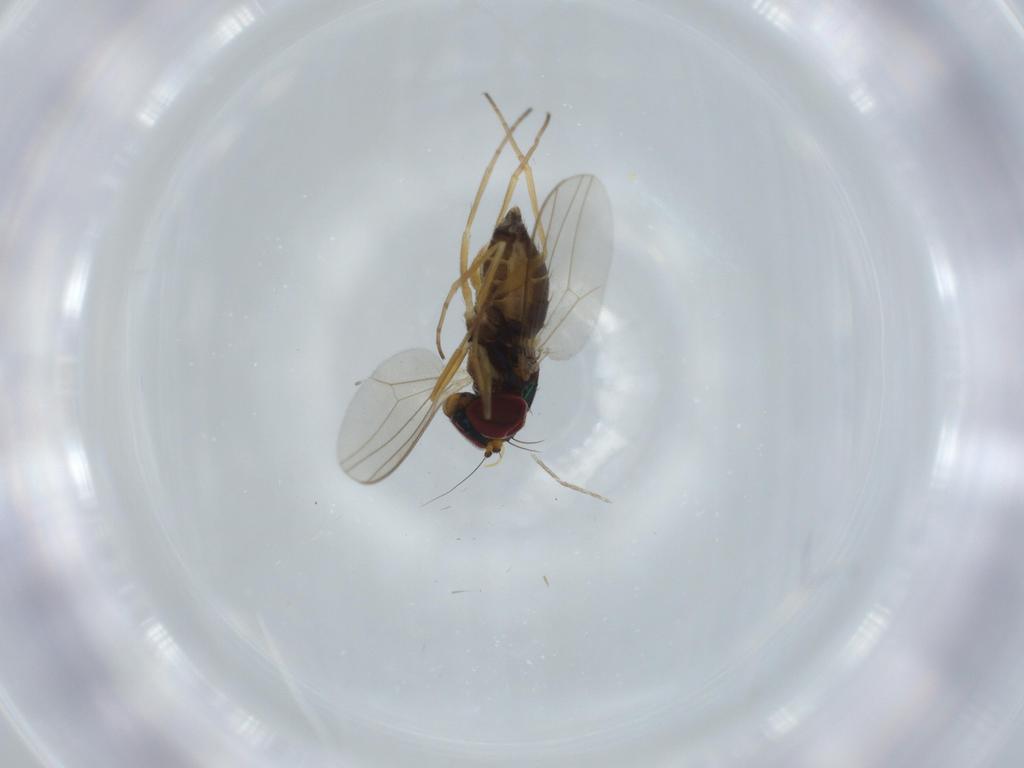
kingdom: Animalia
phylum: Arthropoda
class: Insecta
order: Diptera
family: Dolichopodidae
